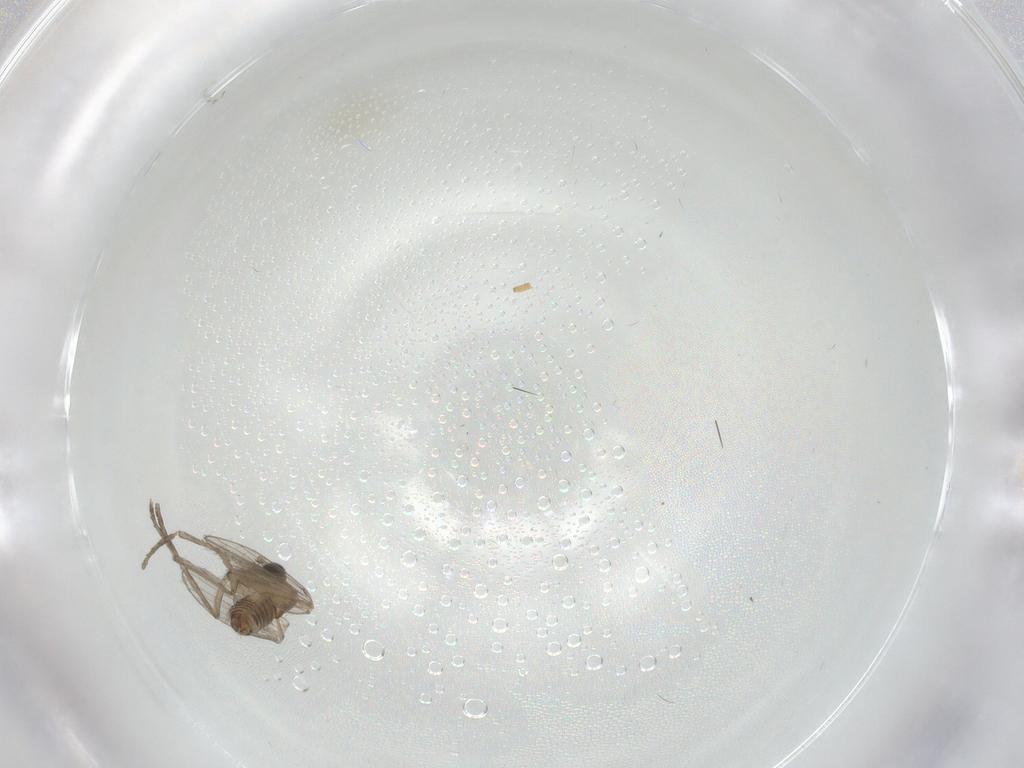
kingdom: Animalia
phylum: Arthropoda
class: Insecta
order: Diptera
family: Psychodidae
